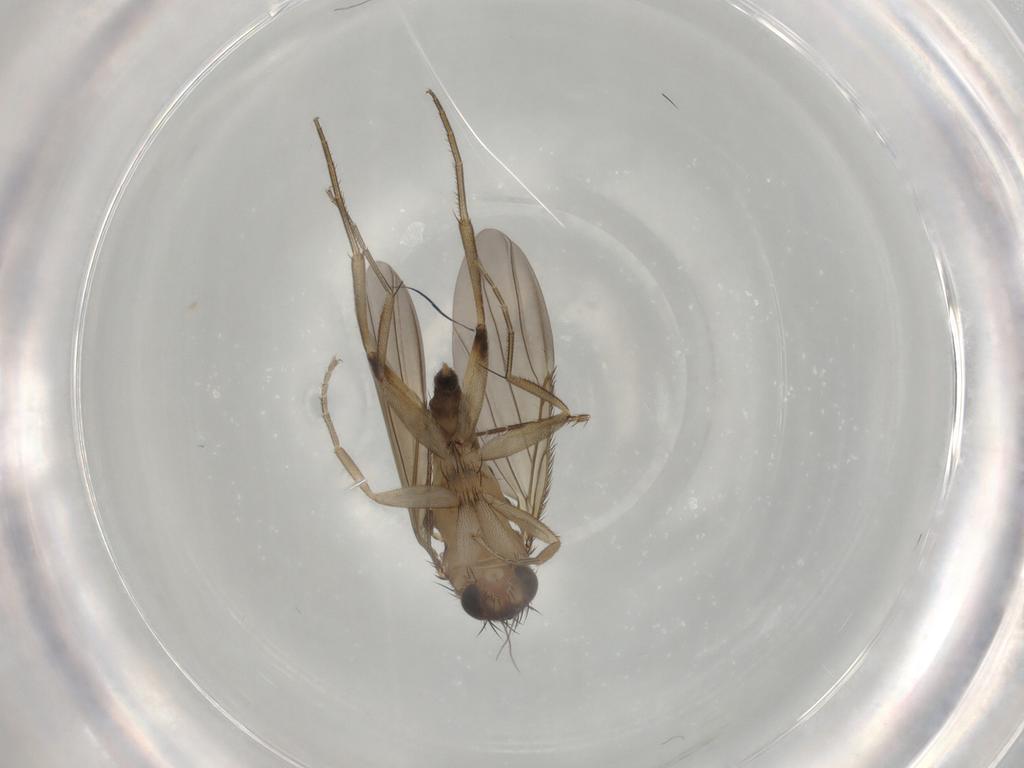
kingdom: Animalia
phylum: Arthropoda
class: Insecta
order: Diptera
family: Phoridae
